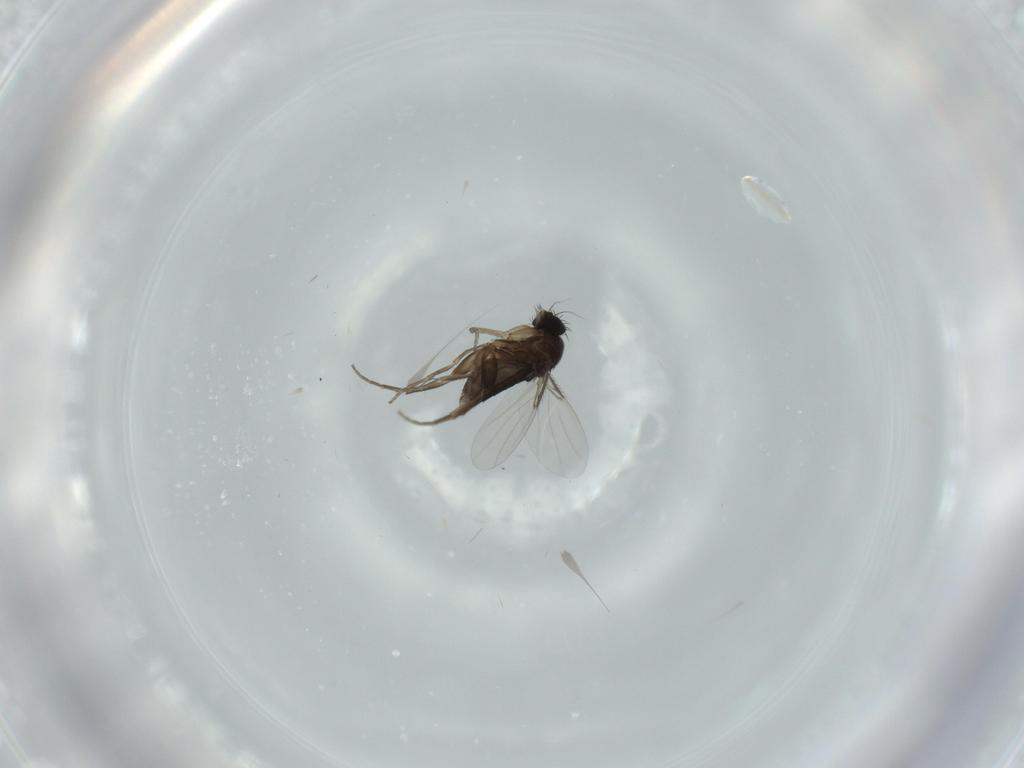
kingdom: Animalia
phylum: Arthropoda
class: Insecta
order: Diptera
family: Phoridae
